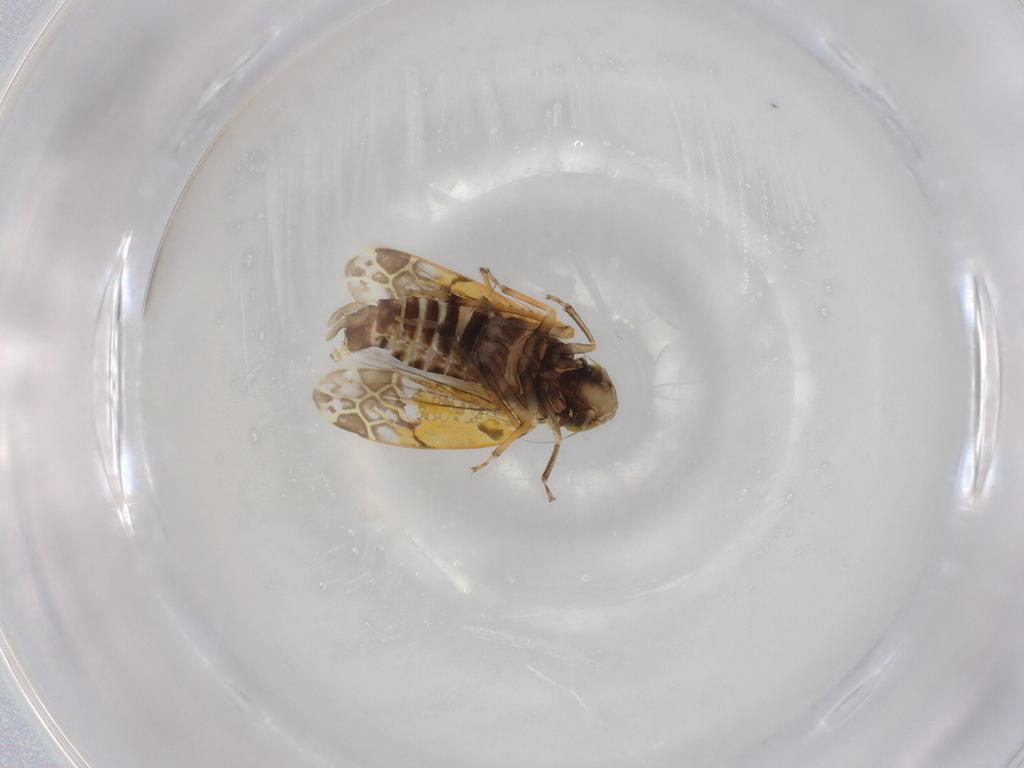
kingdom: Animalia
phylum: Arthropoda
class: Insecta
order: Hemiptera
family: Cicadellidae
